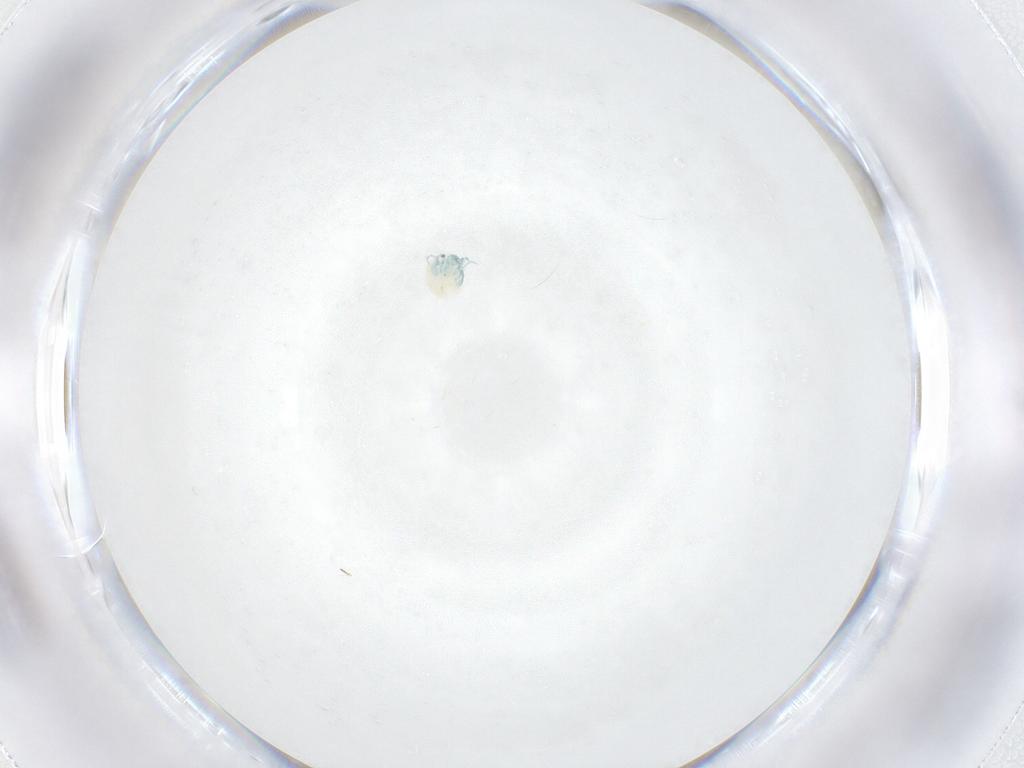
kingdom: Animalia
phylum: Arthropoda
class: Arachnida
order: Trombidiformes
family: Arrenuridae
